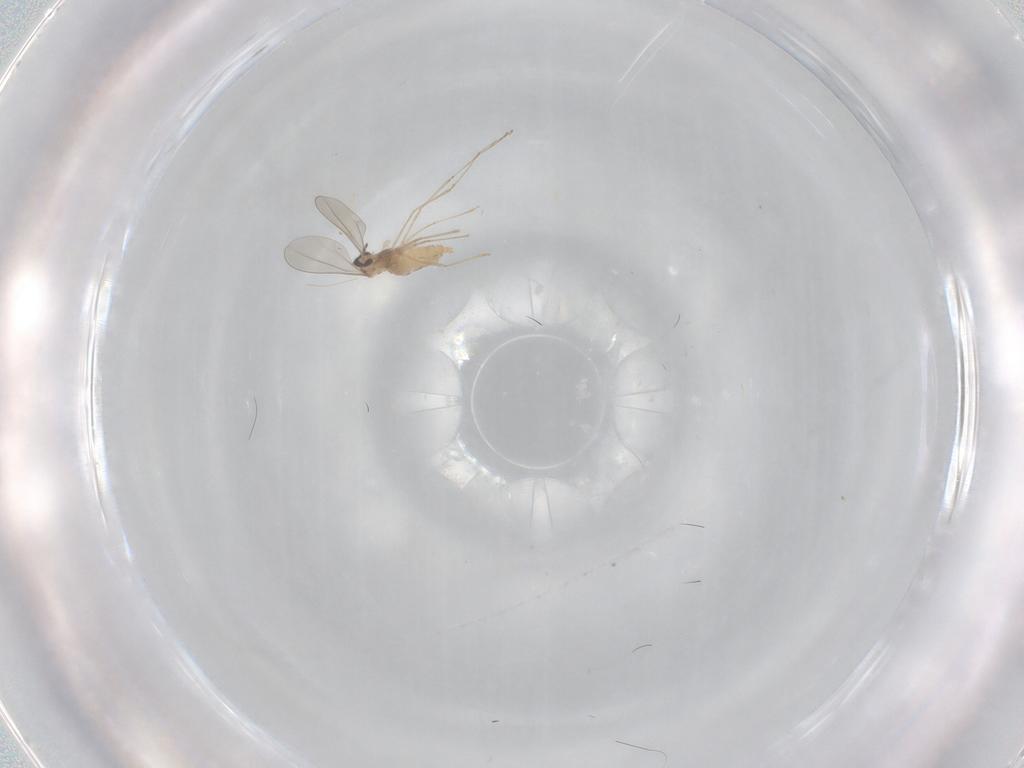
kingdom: Animalia
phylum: Arthropoda
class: Insecta
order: Diptera
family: Cecidomyiidae
